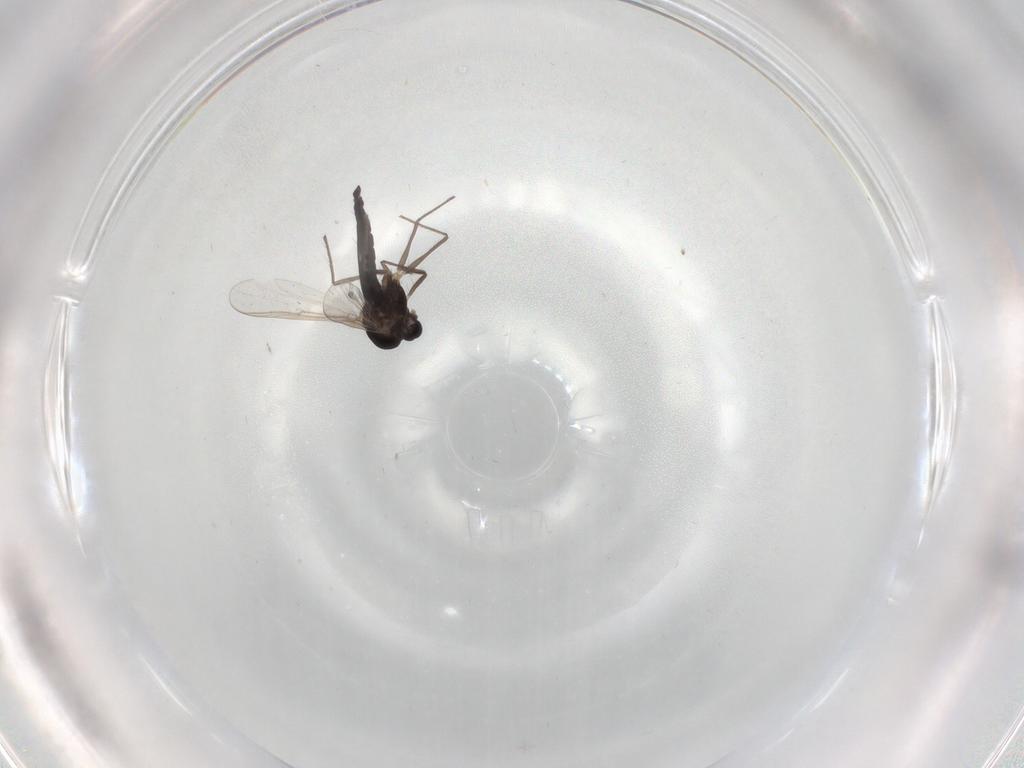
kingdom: Animalia
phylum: Arthropoda
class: Insecta
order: Diptera
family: Chironomidae
